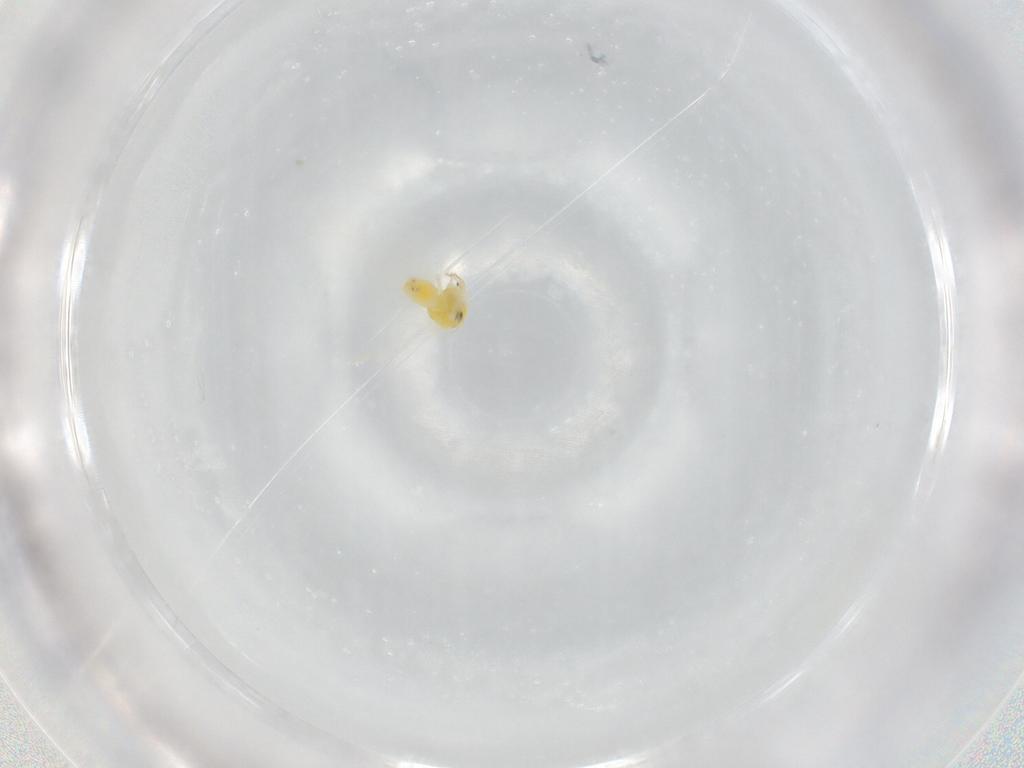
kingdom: Animalia
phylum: Arthropoda
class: Insecta
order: Hemiptera
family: Aleyrodidae
